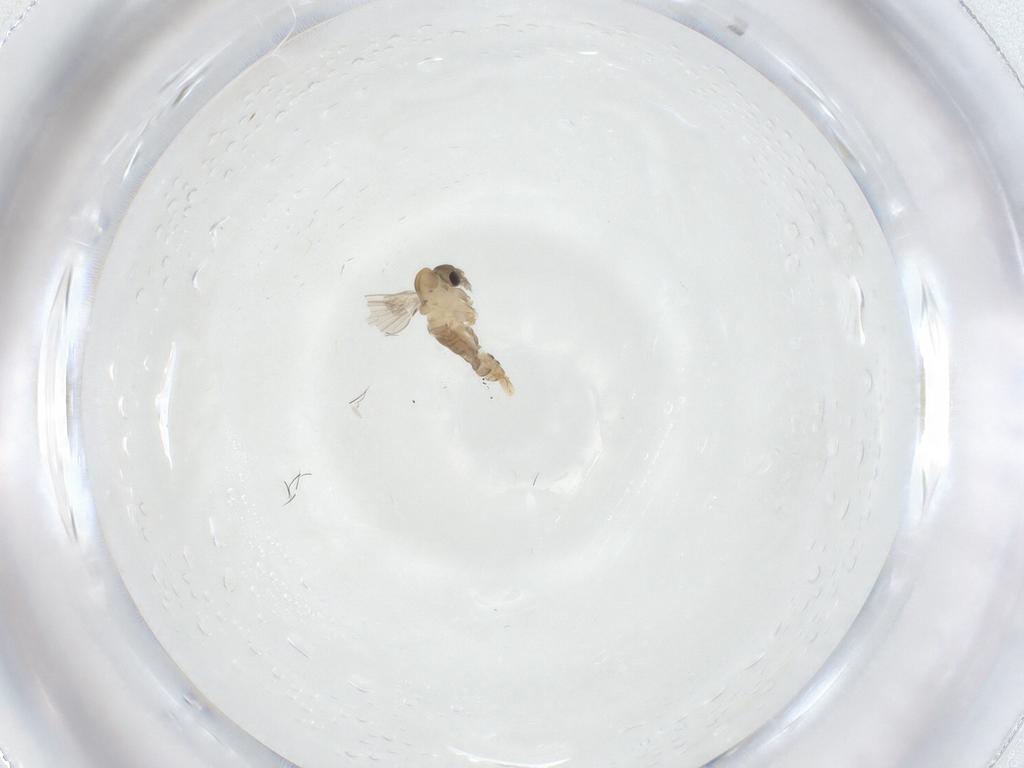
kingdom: Animalia
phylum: Arthropoda
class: Insecta
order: Diptera
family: Psychodidae
